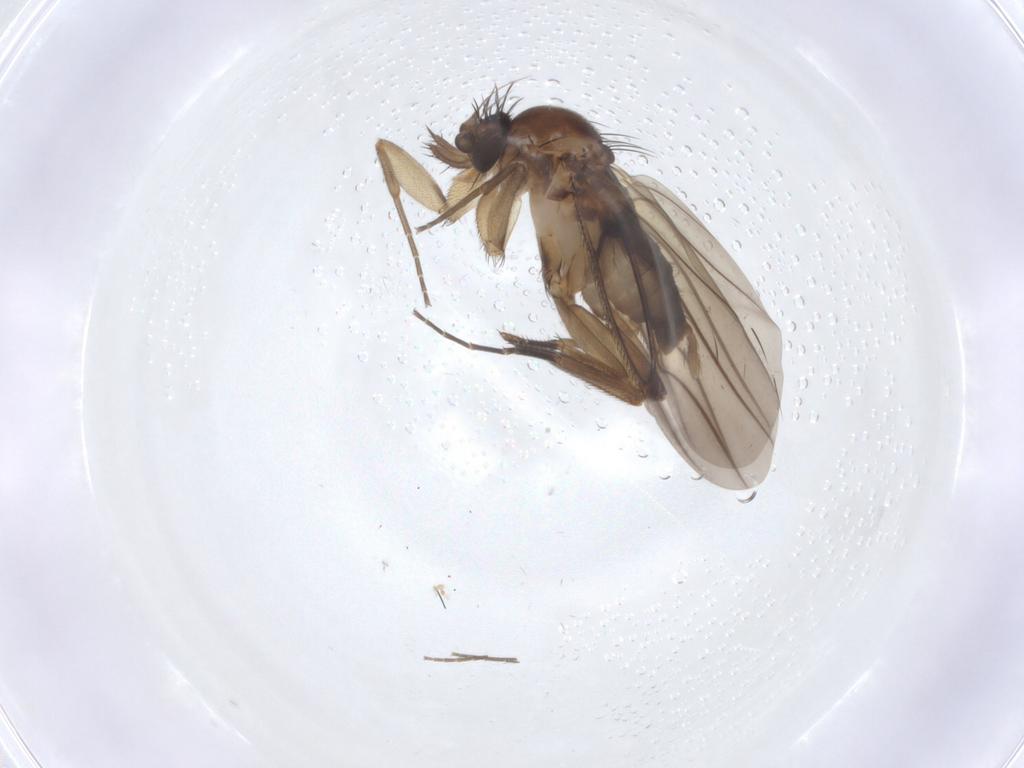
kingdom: Animalia
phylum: Arthropoda
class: Insecta
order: Diptera
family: Phoridae
